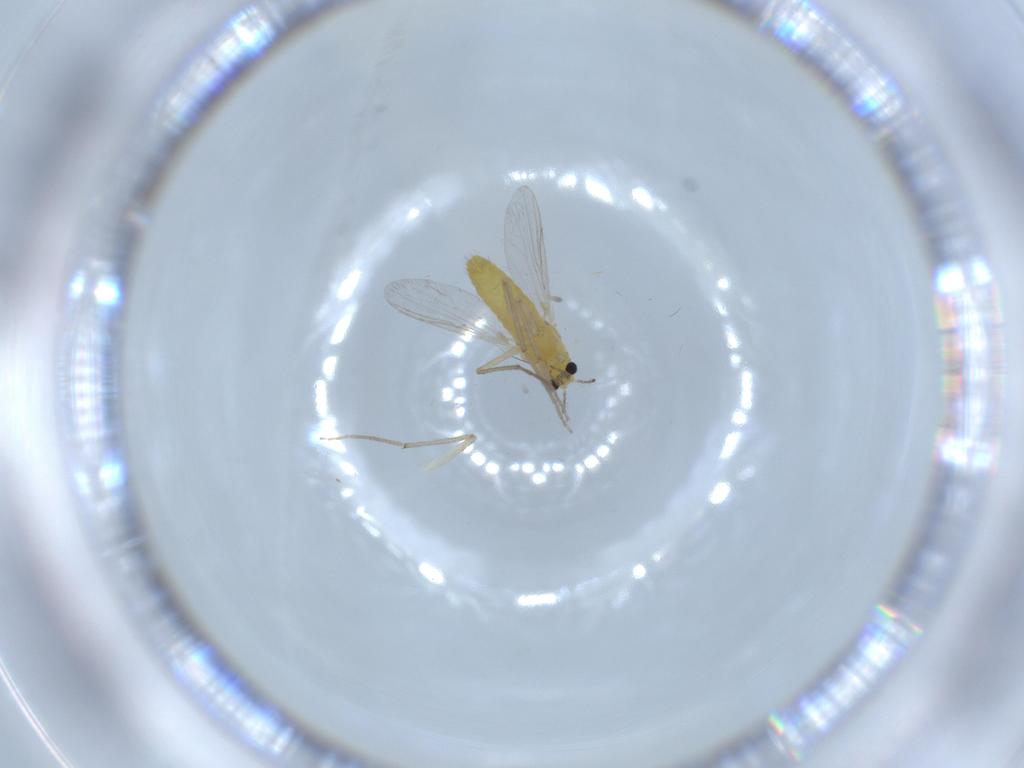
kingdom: Animalia
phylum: Arthropoda
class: Insecta
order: Diptera
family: Chironomidae
